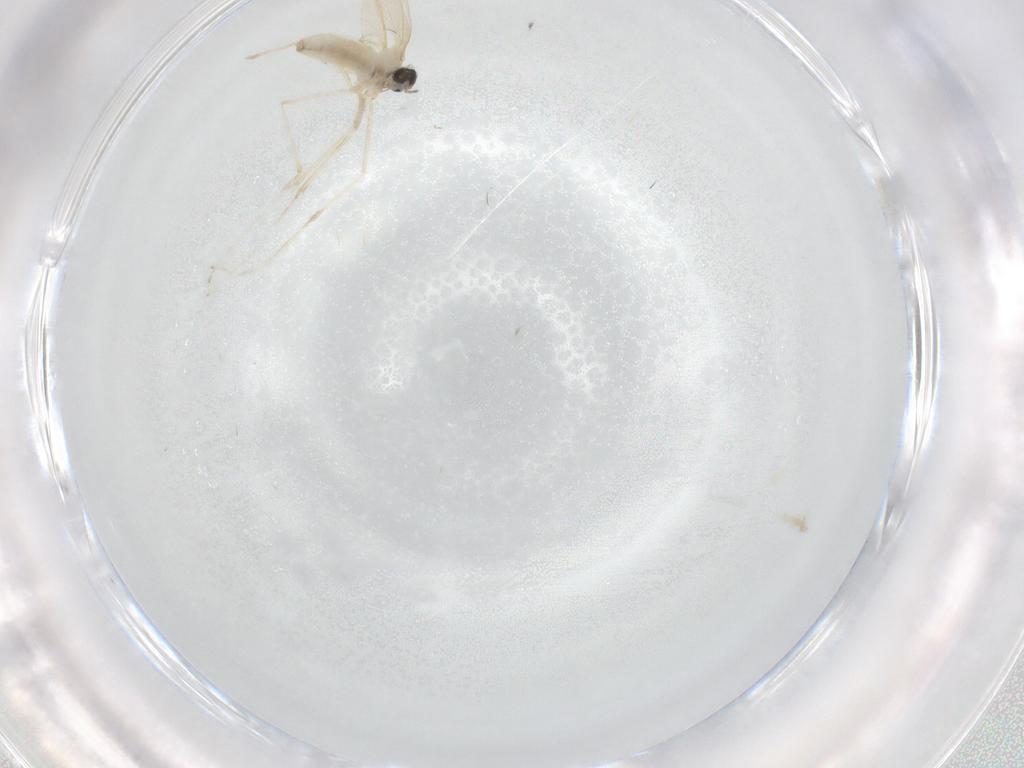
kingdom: Animalia
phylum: Arthropoda
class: Insecta
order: Diptera
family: Cecidomyiidae
